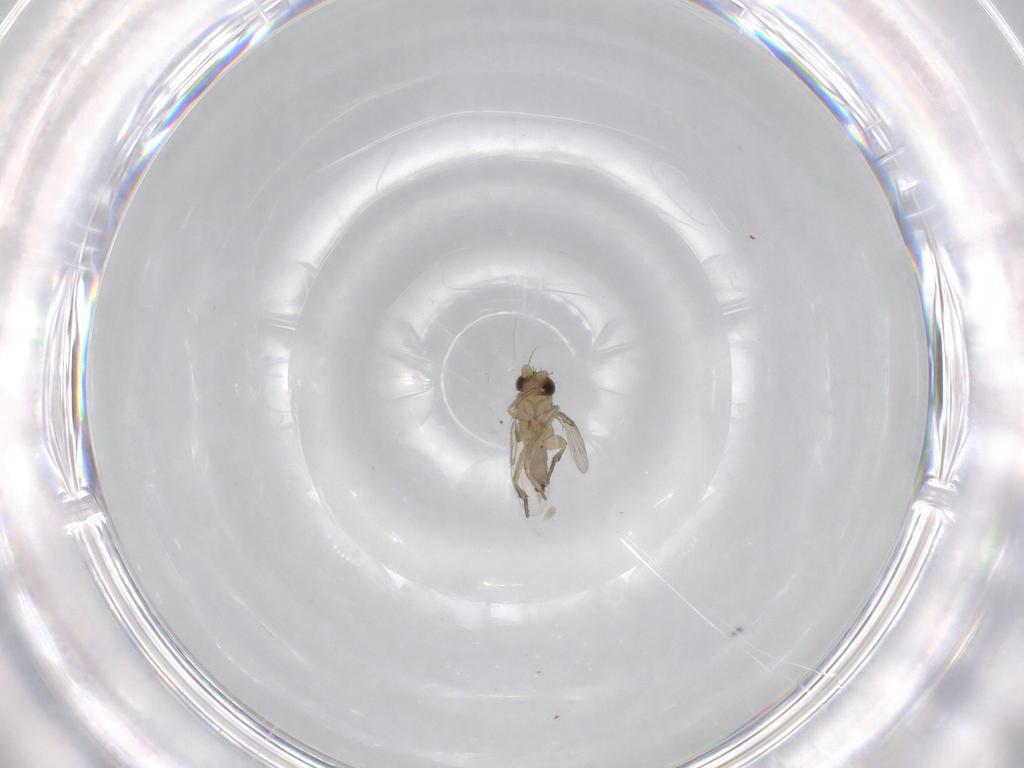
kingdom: Animalia
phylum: Arthropoda
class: Insecta
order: Diptera
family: Phoridae
